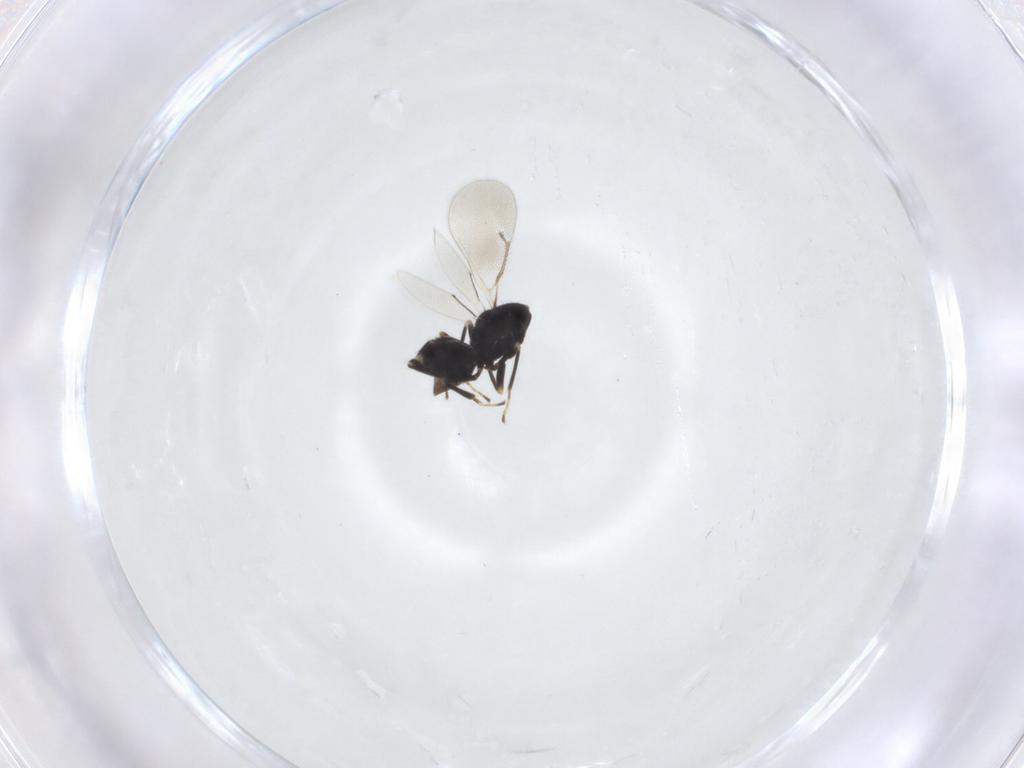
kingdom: Animalia
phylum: Arthropoda
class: Insecta
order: Hymenoptera
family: Eulophidae
